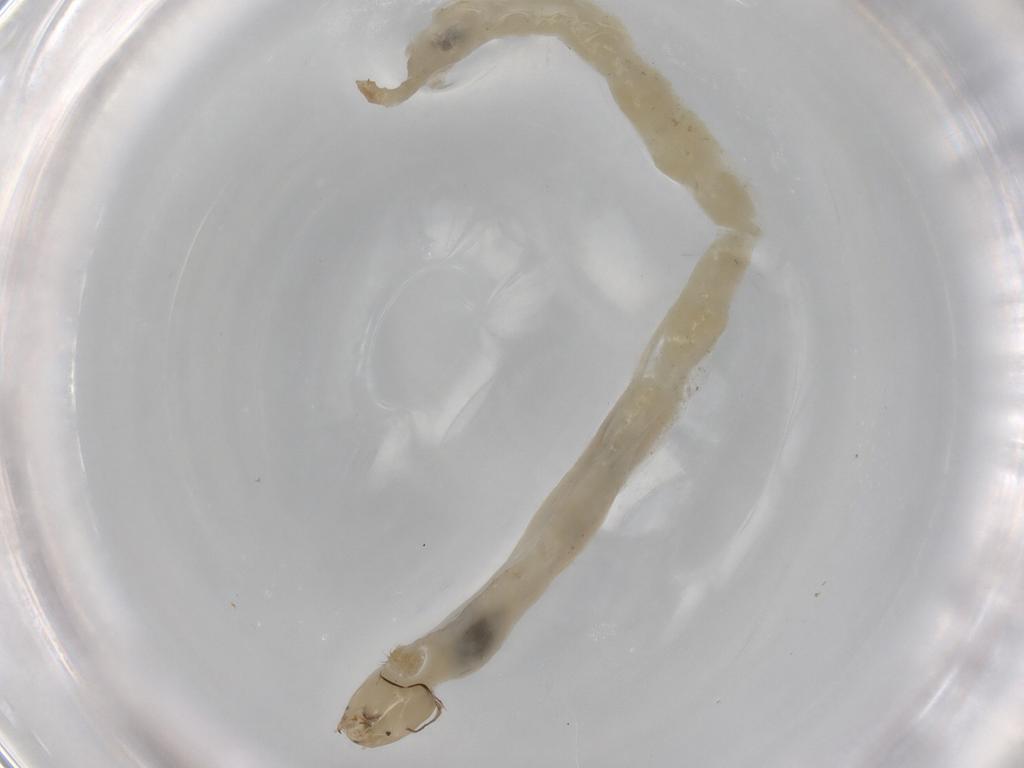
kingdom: Animalia
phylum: Arthropoda
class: Insecta
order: Diptera
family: Chironomidae
